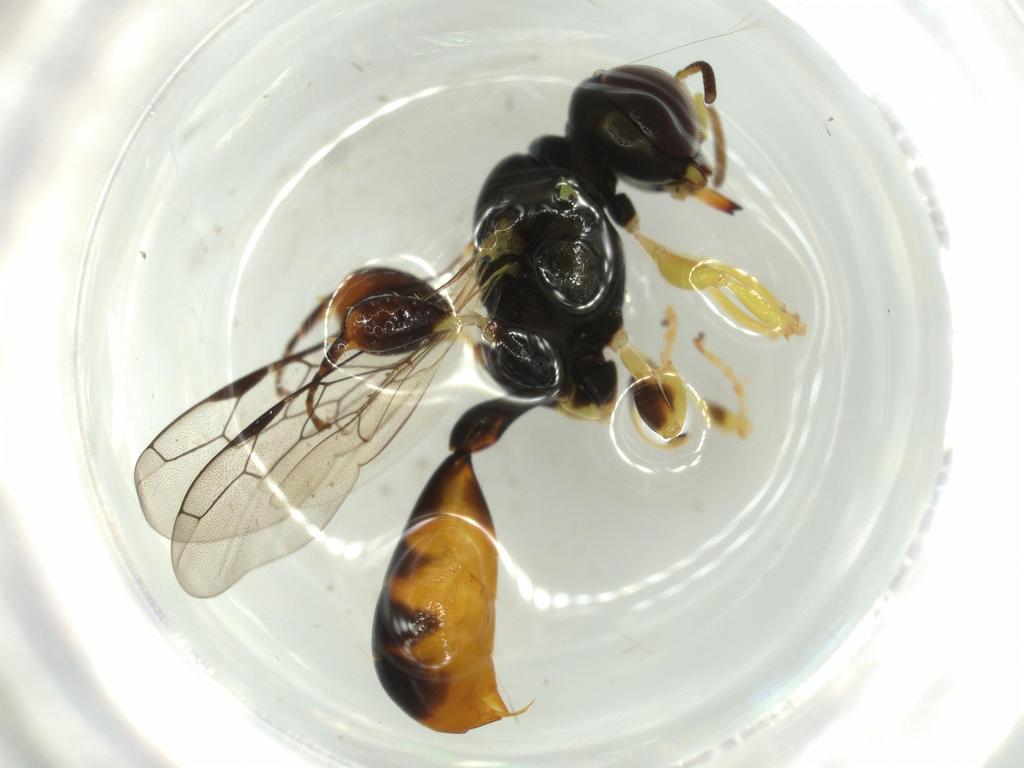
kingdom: Animalia
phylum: Arthropoda
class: Insecta
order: Hymenoptera
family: Crabronidae
